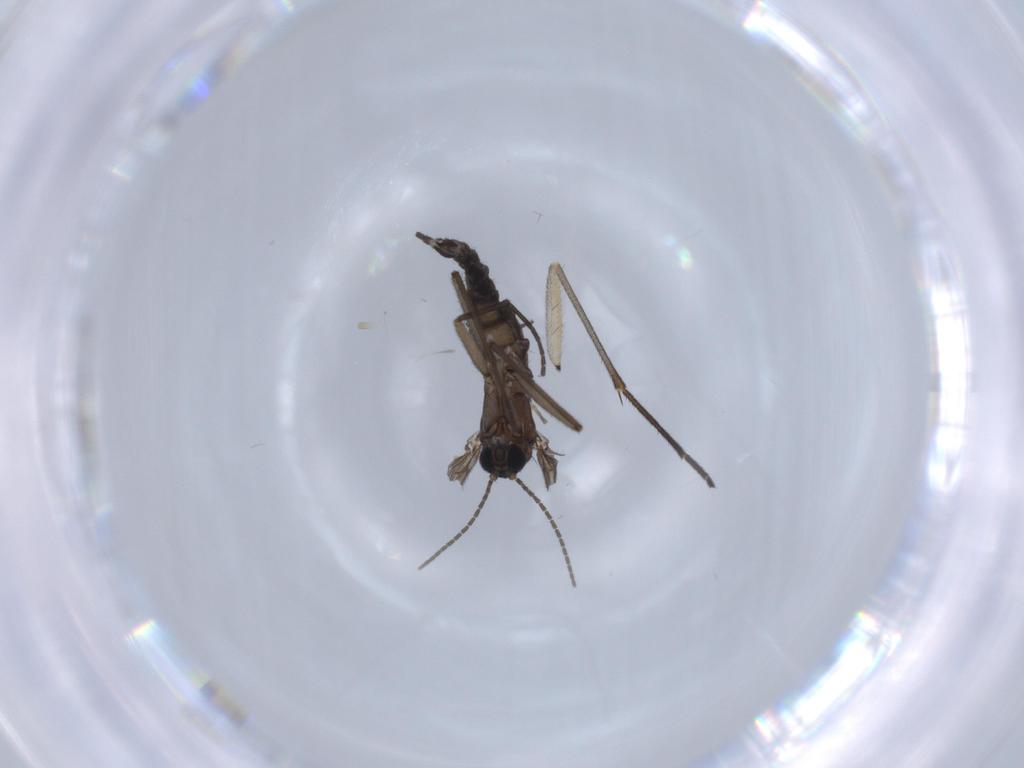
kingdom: Animalia
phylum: Arthropoda
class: Insecta
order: Diptera
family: Sciaridae
